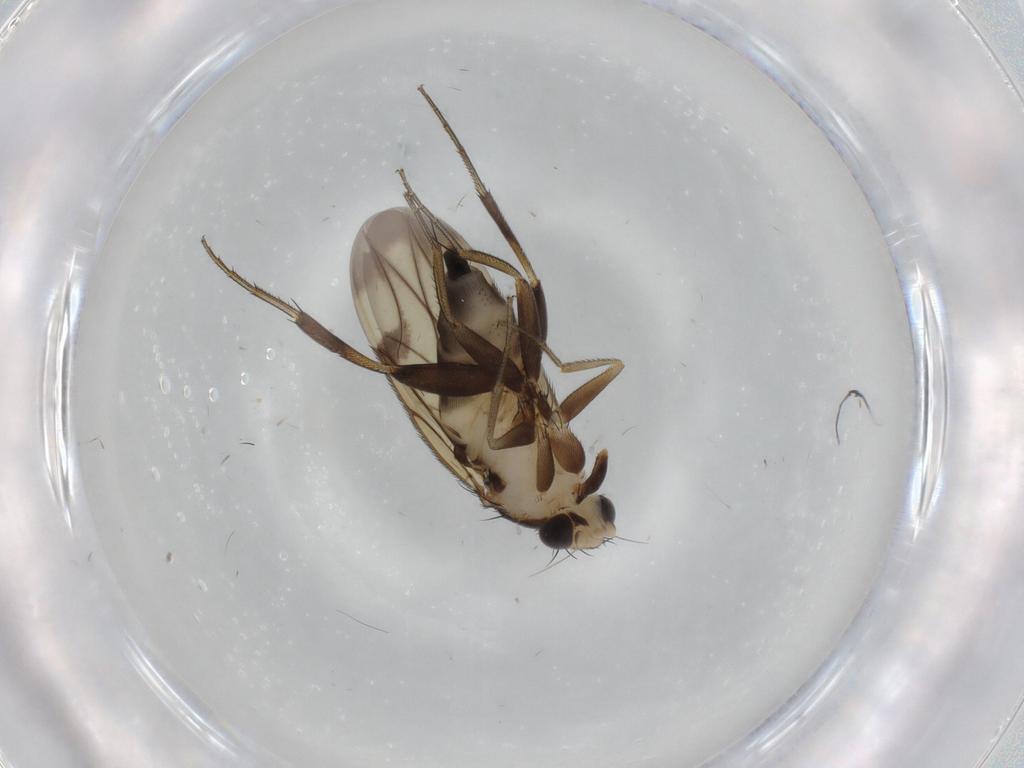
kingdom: Animalia
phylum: Arthropoda
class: Insecta
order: Diptera
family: Phoridae
